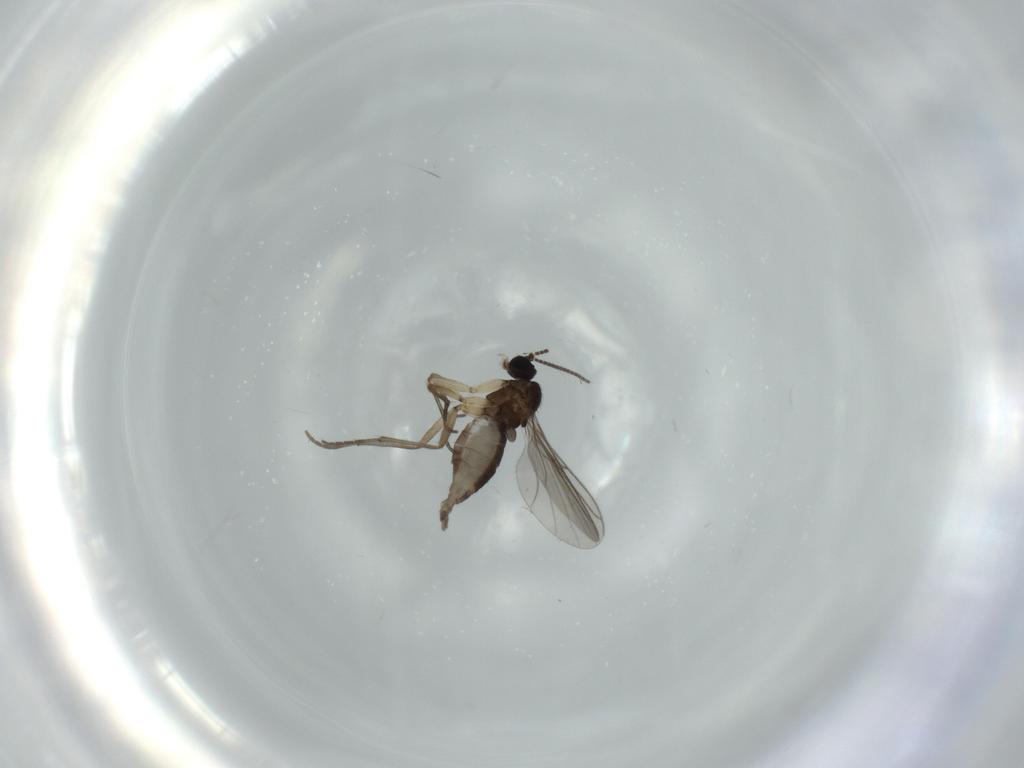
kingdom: Animalia
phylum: Arthropoda
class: Insecta
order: Diptera
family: Sciaridae
